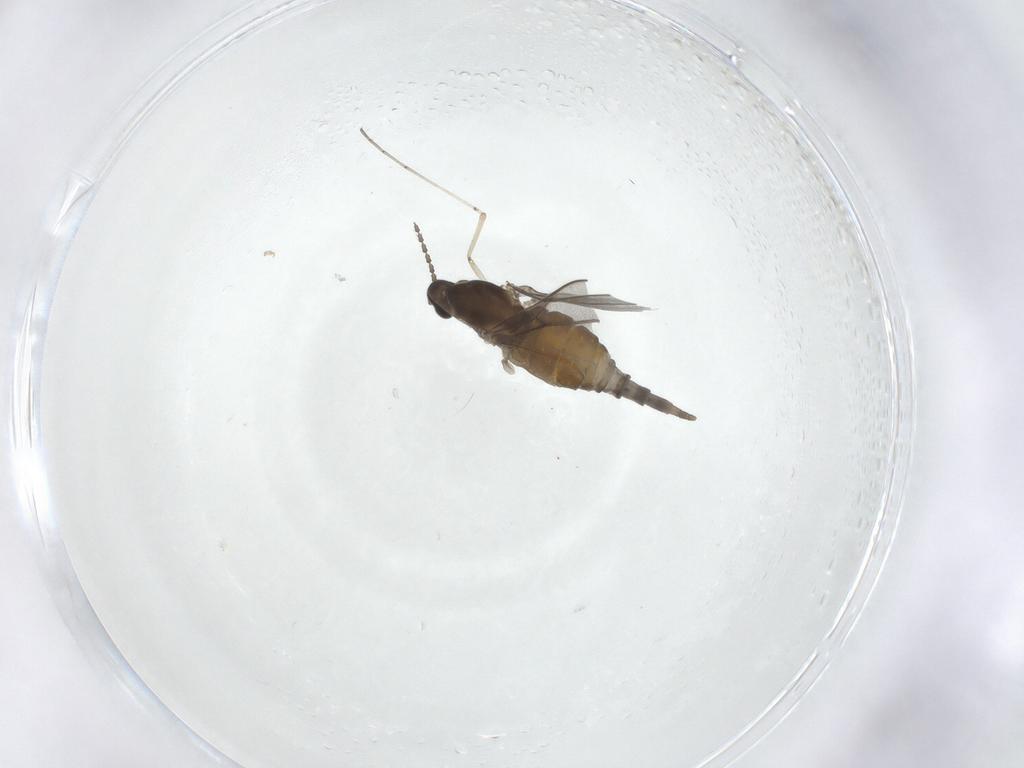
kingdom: Animalia
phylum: Arthropoda
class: Insecta
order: Diptera
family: Cecidomyiidae
